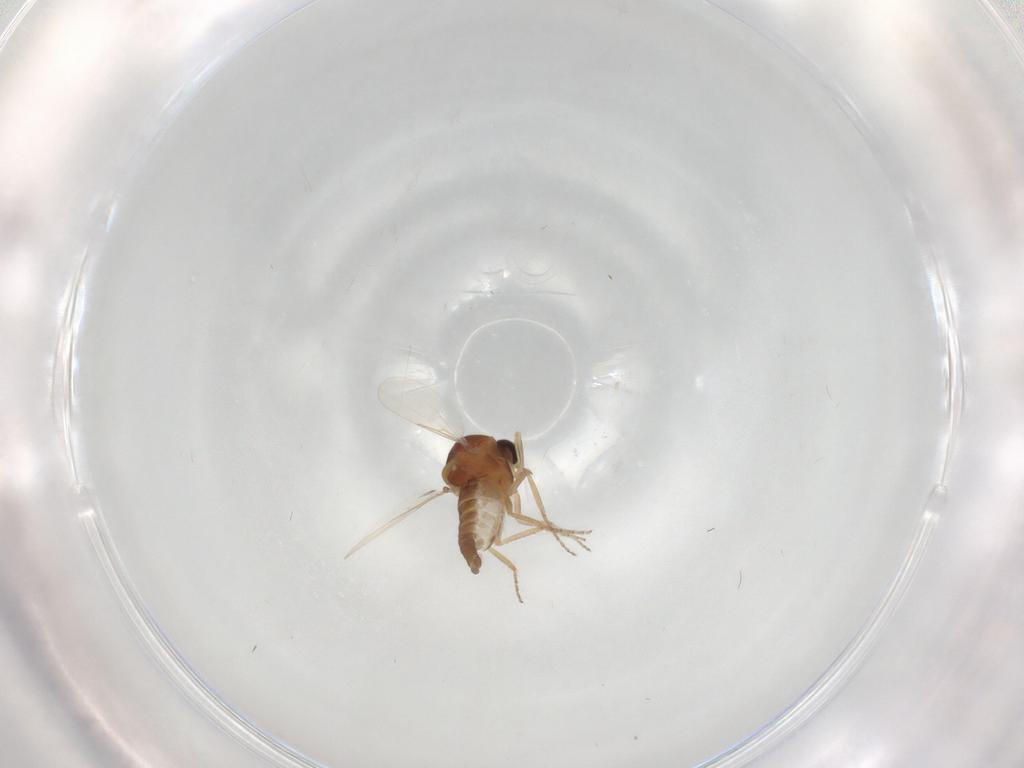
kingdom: Animalia
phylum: Arthropoda
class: Insecta
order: Diptera
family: Ceratopogonidae
